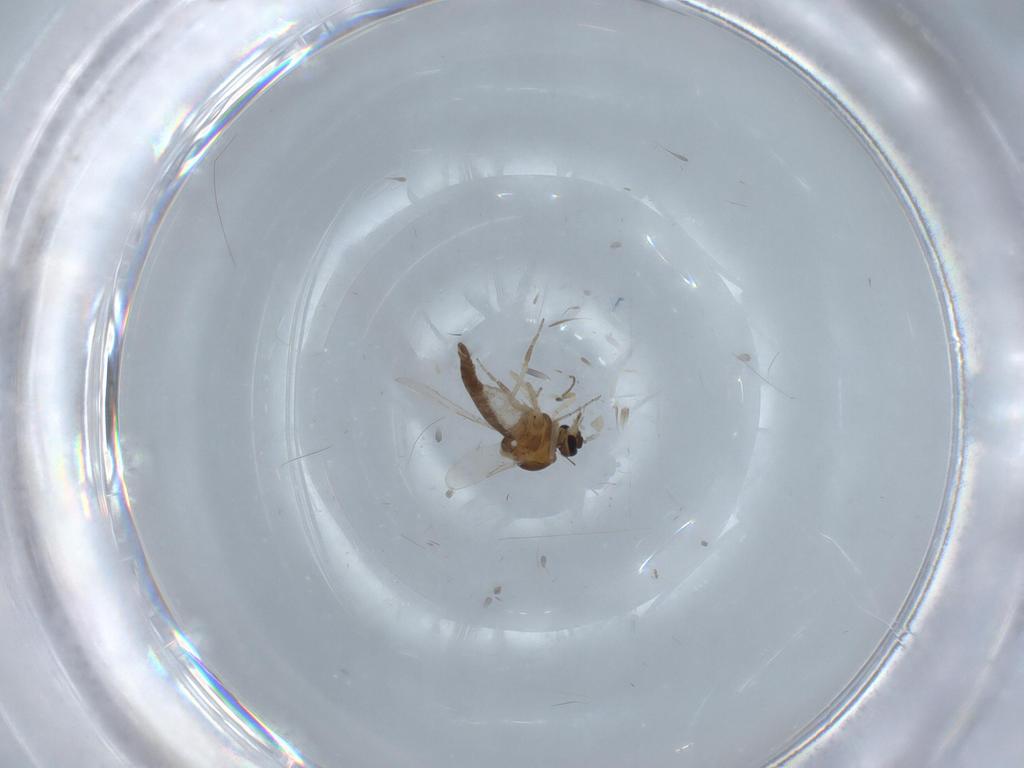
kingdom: Animalia
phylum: Arthropoda
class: Insecta
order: Diptera
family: Ceratopogonidae
